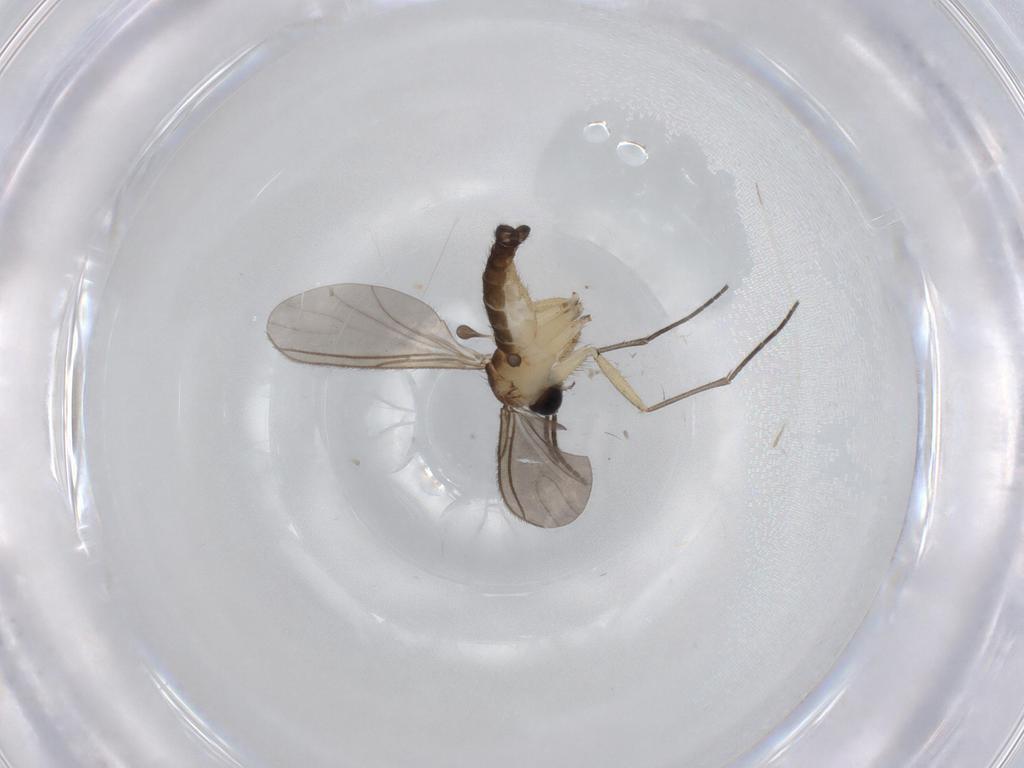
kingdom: Animalia
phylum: Arthropoda
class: Insecta
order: Diptera
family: Sciaridae
